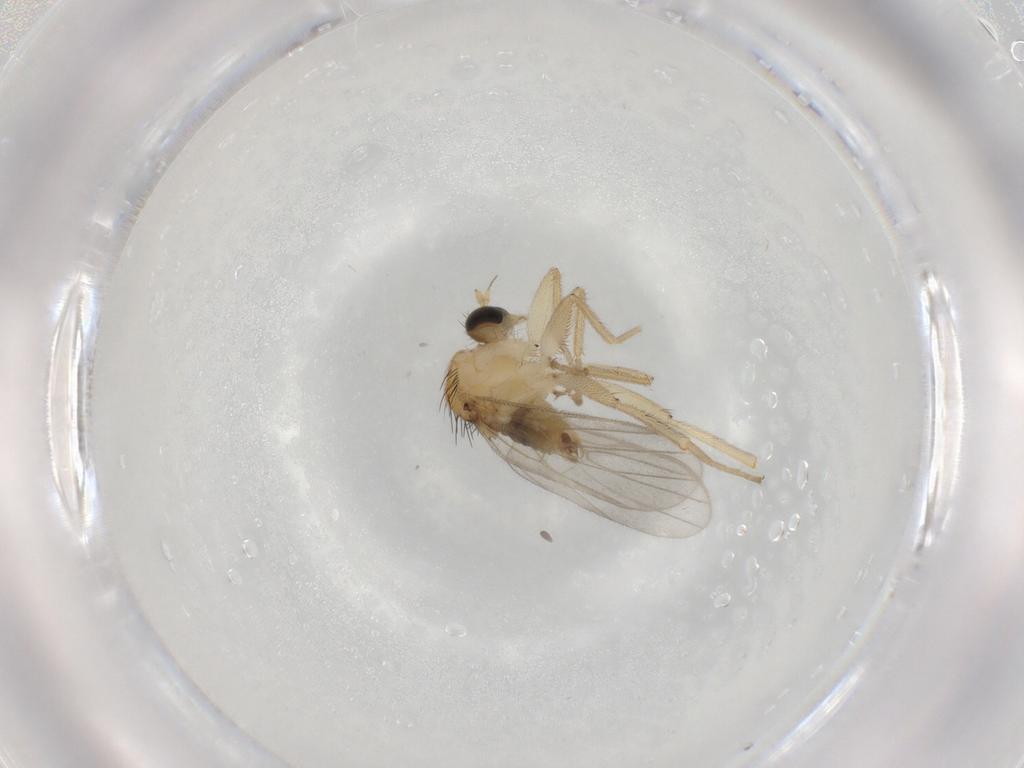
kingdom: Animalia
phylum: Arthropoda
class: Insecta
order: Diptera
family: Hybotidae
